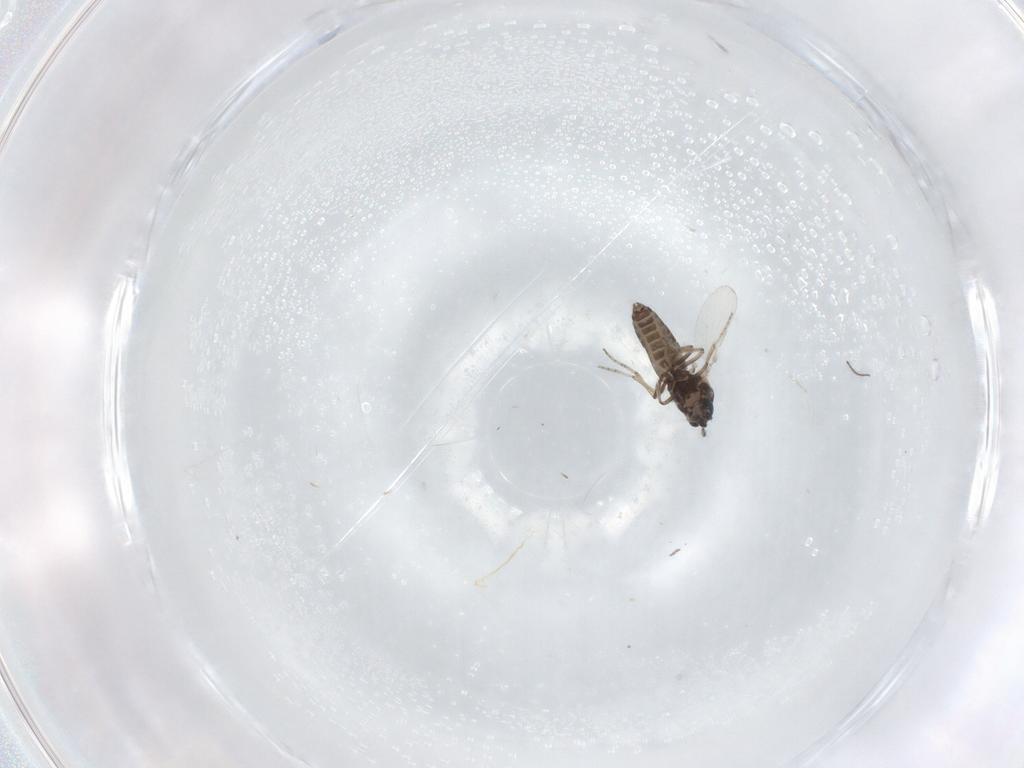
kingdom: Animalia
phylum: Arthropoda
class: Insecta
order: Diptera
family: Ceratopogonidae
